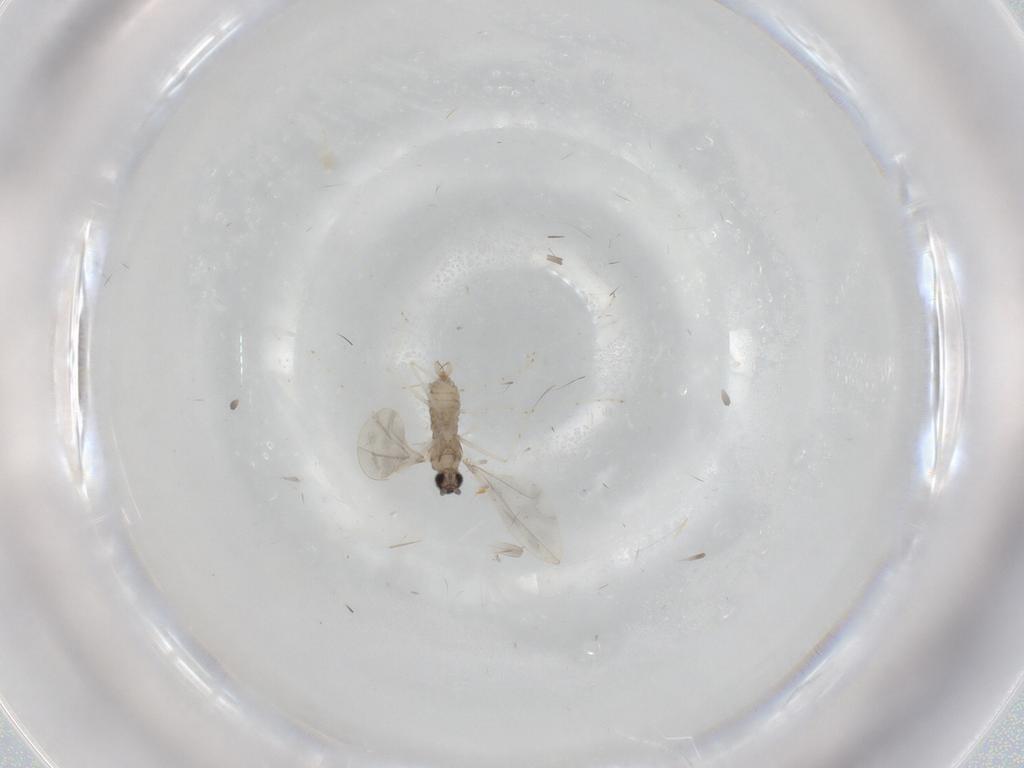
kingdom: Animalia
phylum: Arthropoda
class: Insecta
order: Diptera
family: Cecidomyiidae
